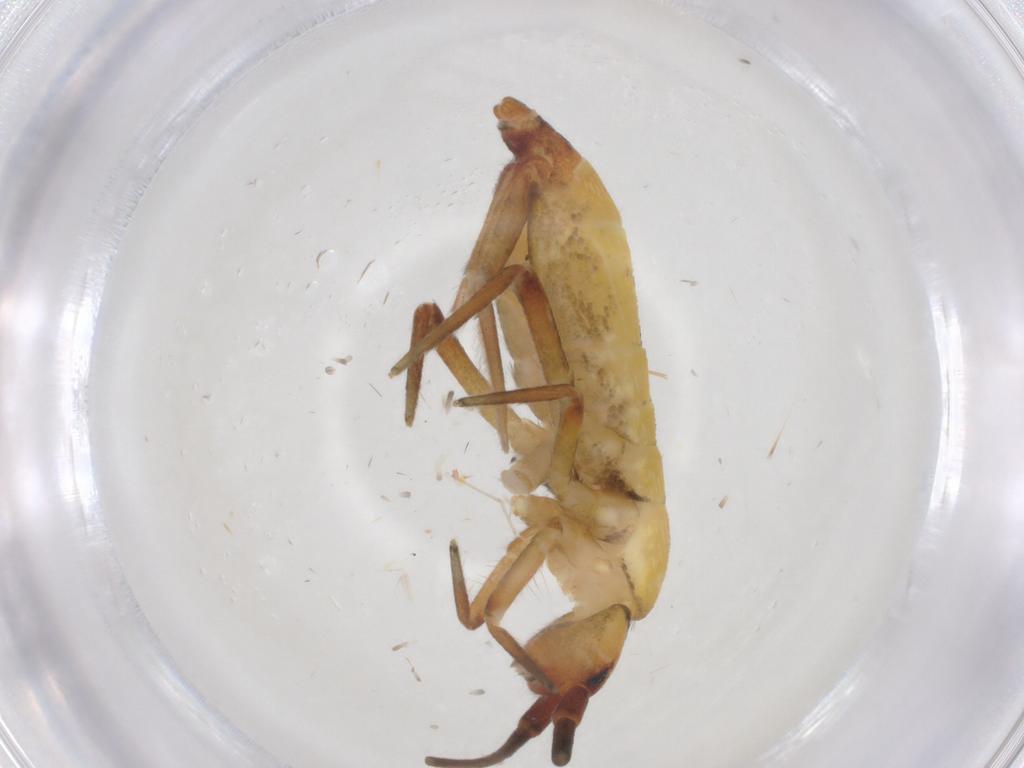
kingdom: Animalia
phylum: Arthropoda
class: Collembola
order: Entomobryomorpha
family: Tomoceridae
